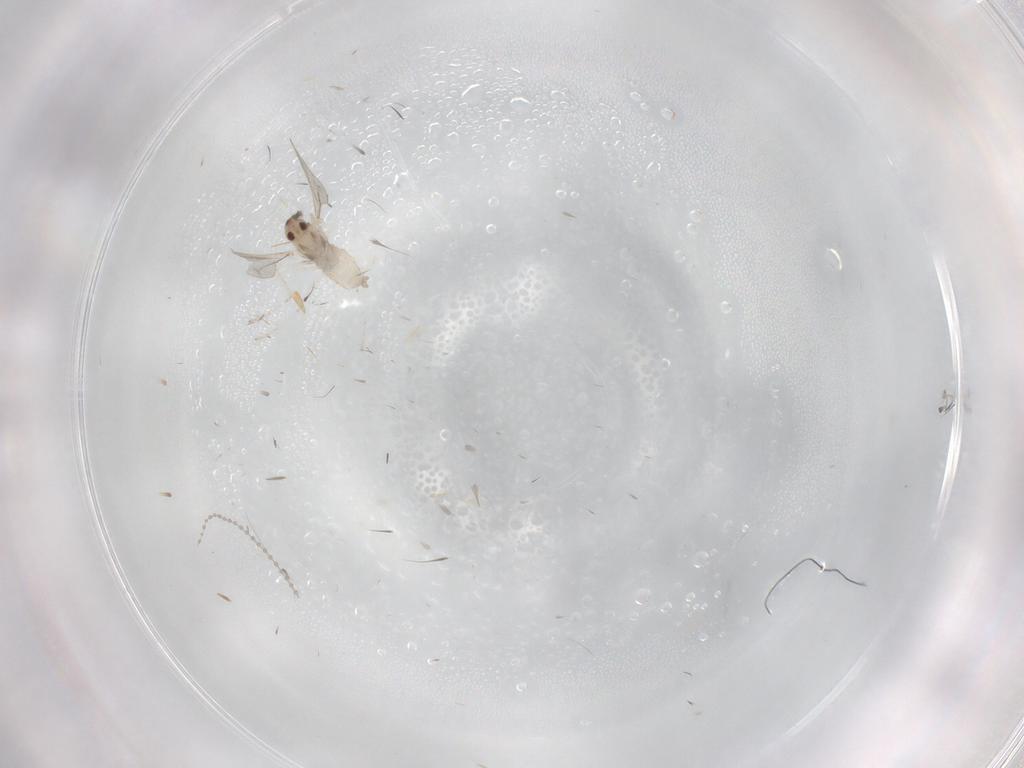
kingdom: Animalia
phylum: Arthropoda
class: Insecta
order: Diptera
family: Cecidomyiidae
